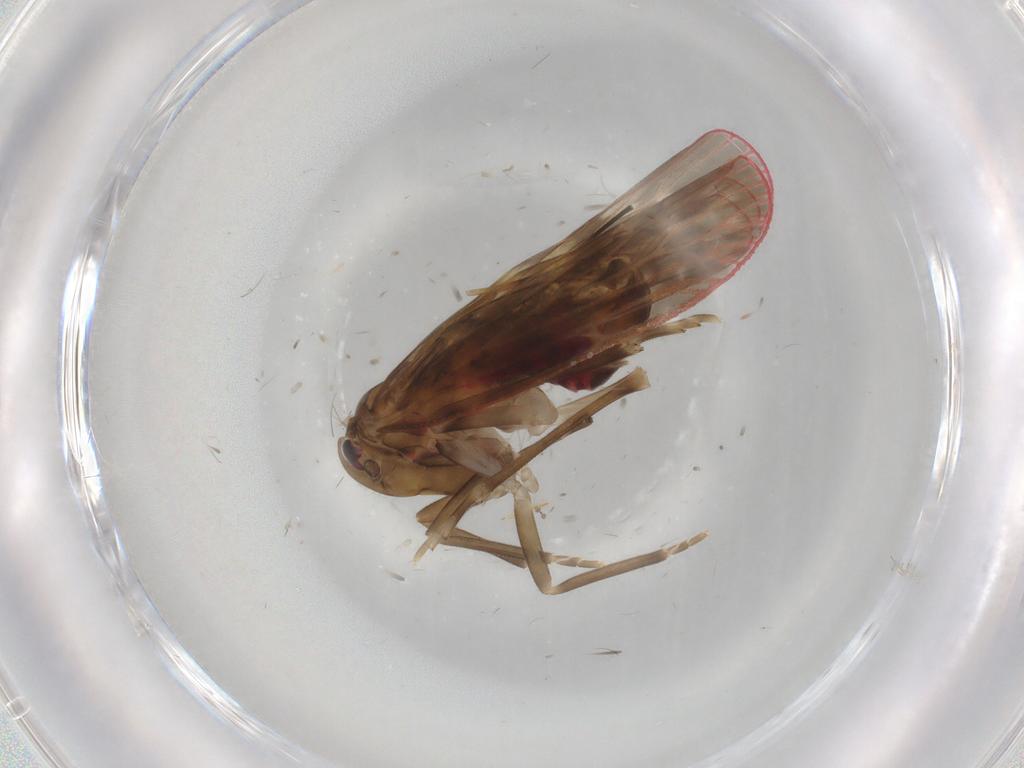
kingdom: Animalia
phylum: Arthropoda
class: Insecta
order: Hemiptera
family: Achilidae
